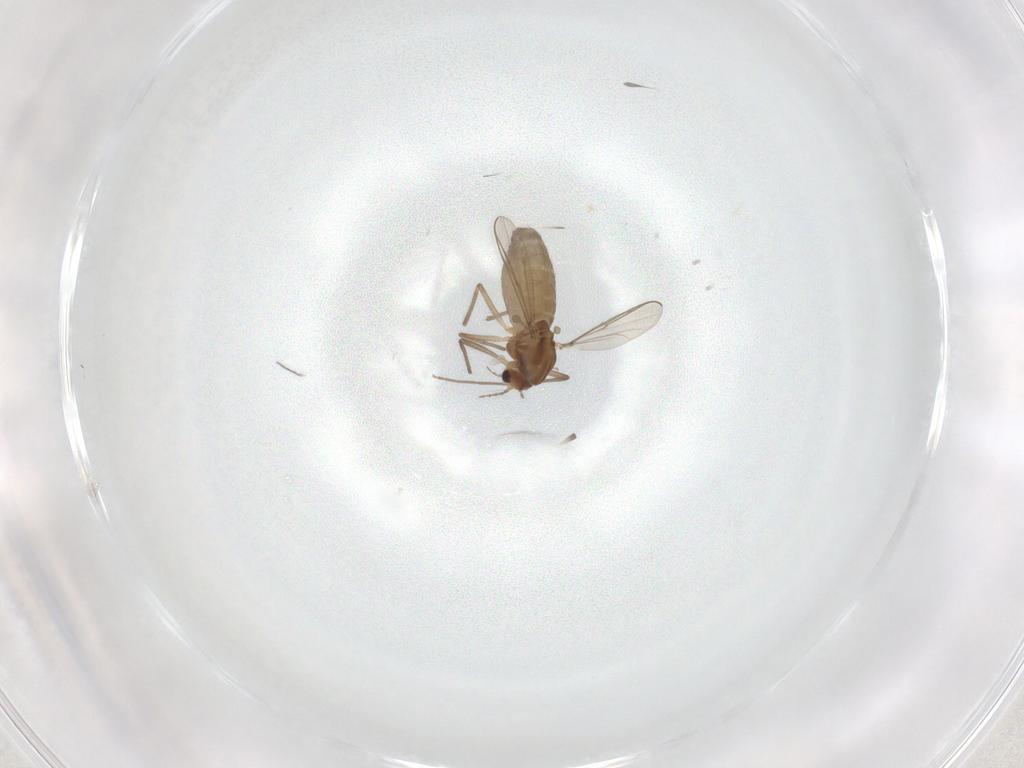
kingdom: Animalia
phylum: Arthropoda
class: Insecta
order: Diptera
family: Chironomidae
